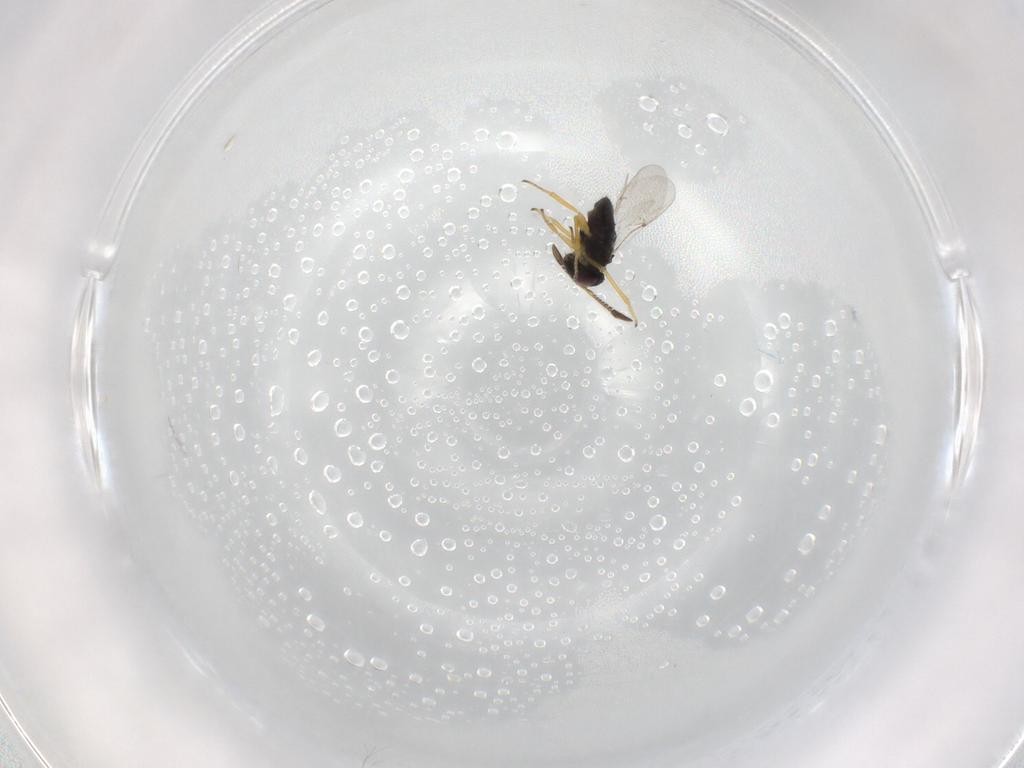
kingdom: Animalia
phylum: Arthropoda
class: Insecta
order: Hymenoptera
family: Encyrtidae
